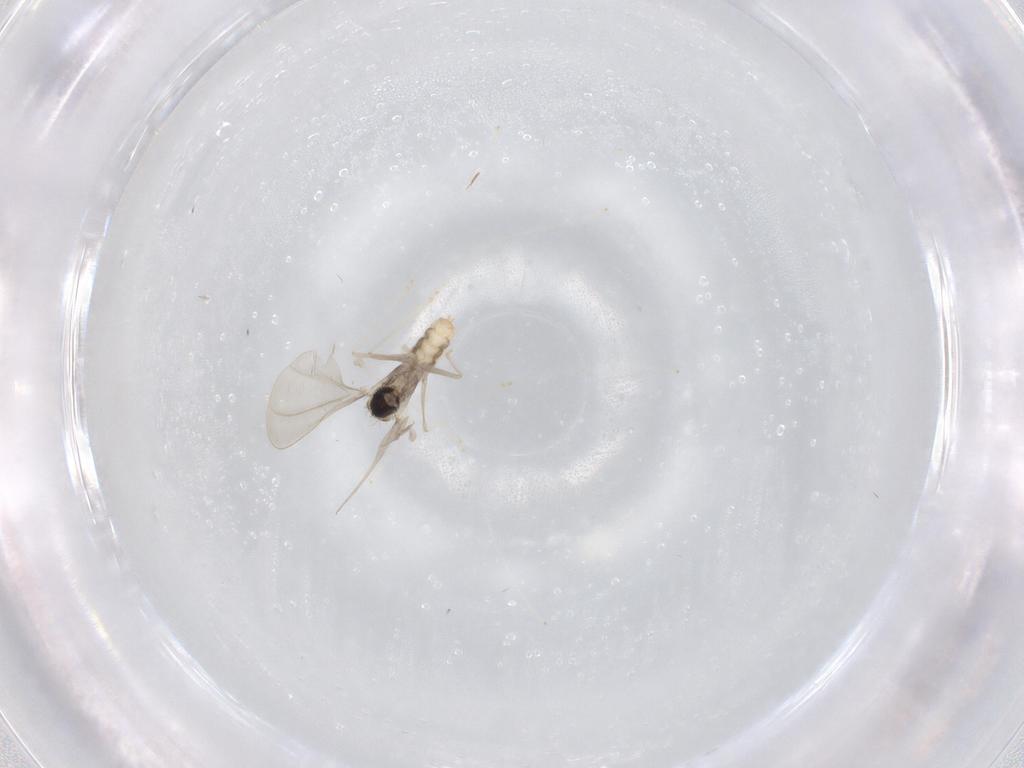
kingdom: Animalia
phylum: Arthropoda
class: Insecta
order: Diptera
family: Cecidomyiidae
